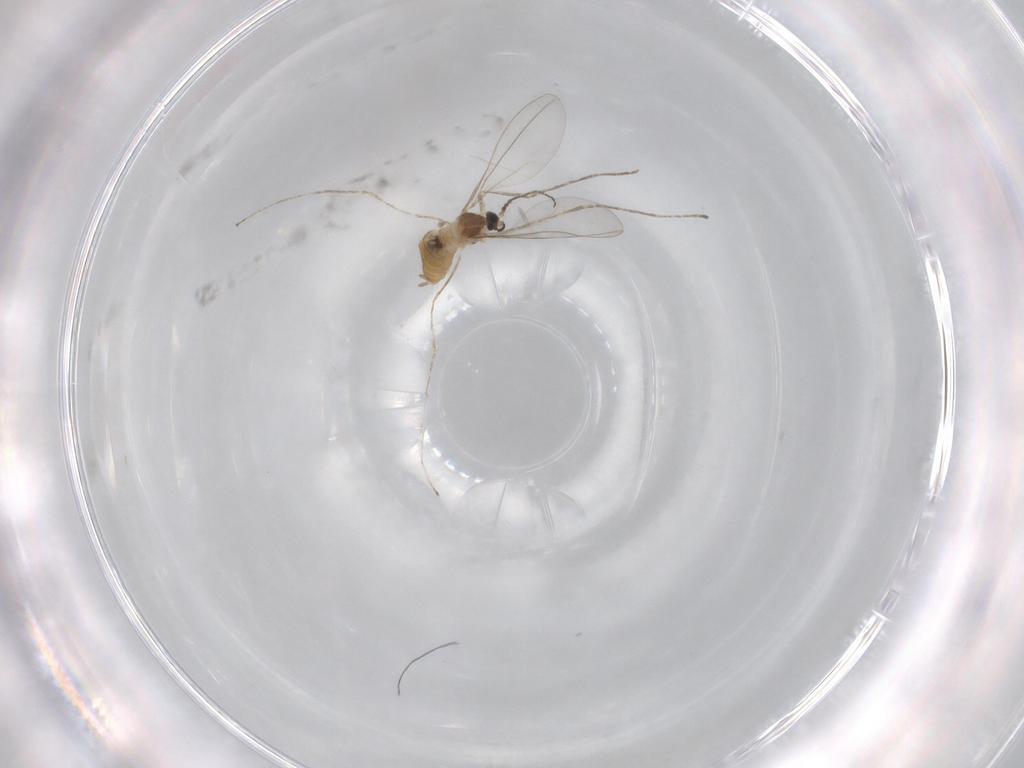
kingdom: Animalia
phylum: Arthropoda
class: Insecta
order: Diptera
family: Cecidomyiidae
